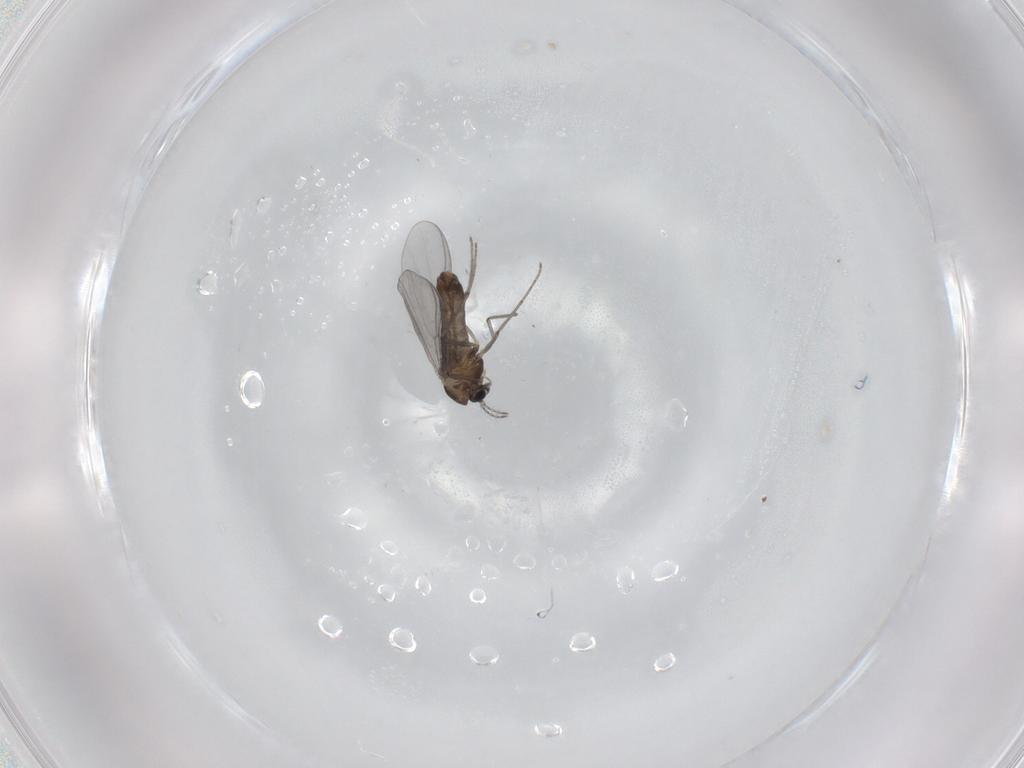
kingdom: Animalia
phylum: Arthropoda
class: Insecta
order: Diptera
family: Chironomidae
